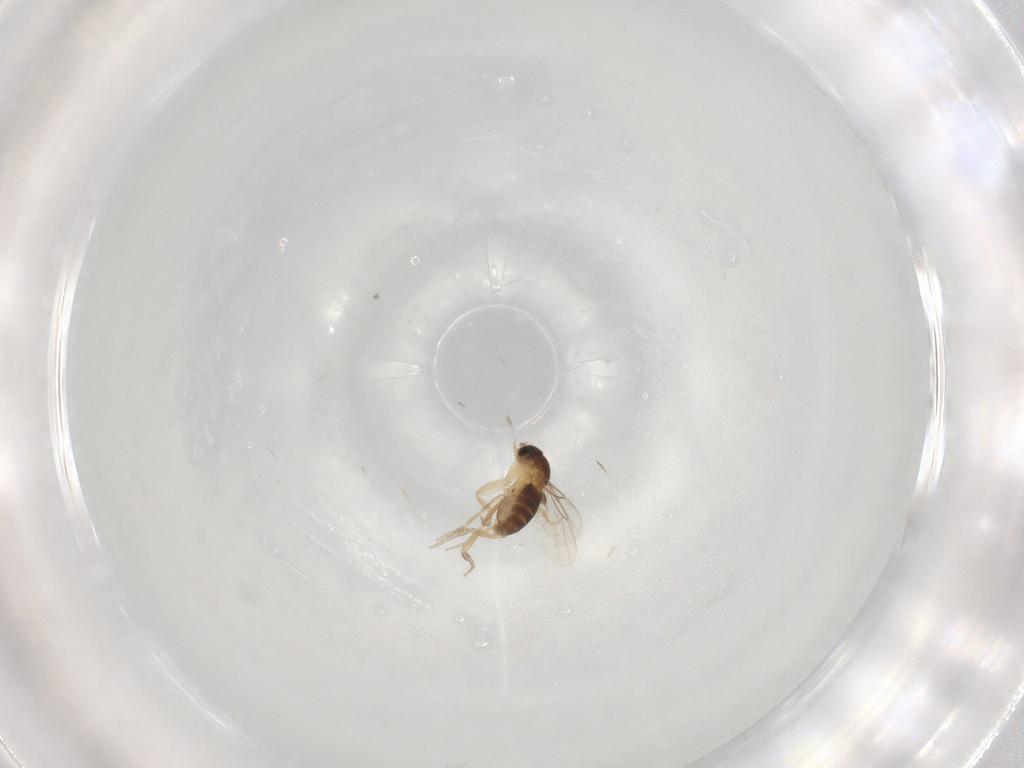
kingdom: Animalia
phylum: Arthropoda
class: Insecta
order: Diptera
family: Phoridae
